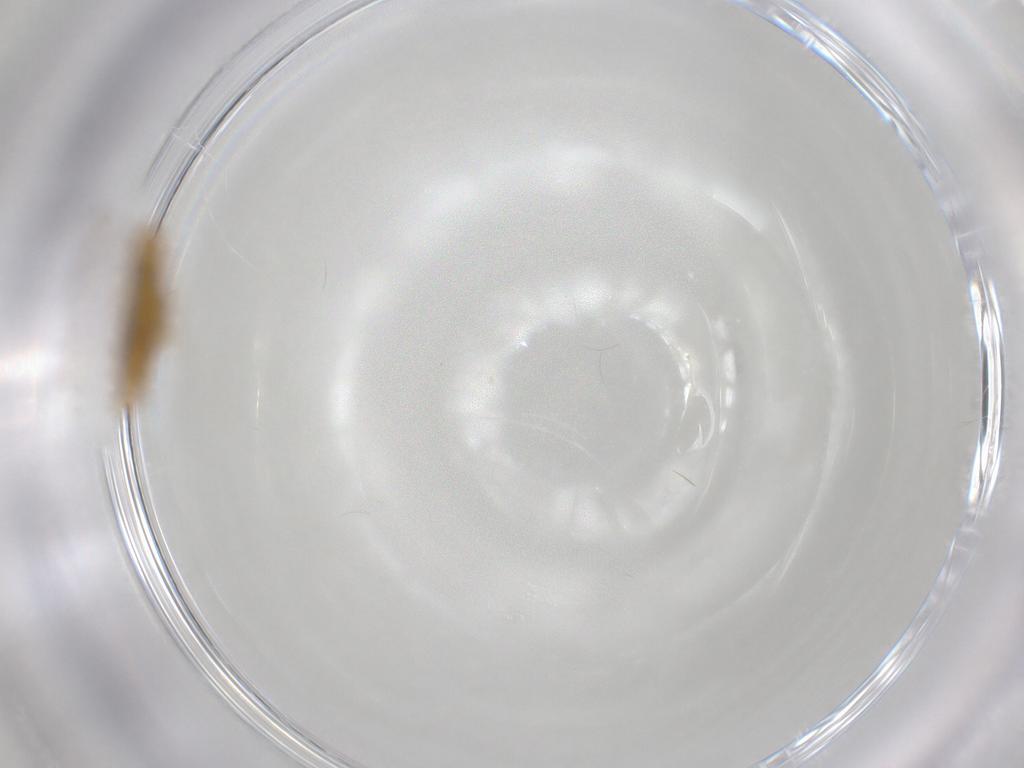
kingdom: Animalia
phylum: Arthropoda
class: Collembola
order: Entomobryomorpha
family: Entomobryidae
